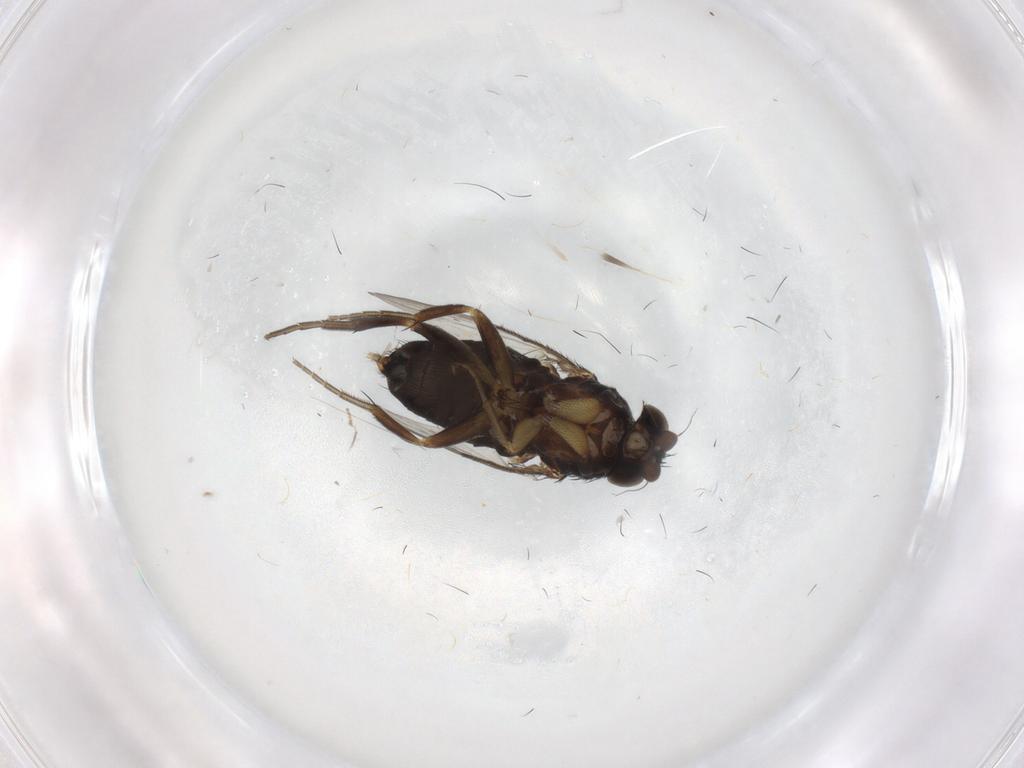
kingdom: Animalia
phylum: Arthropoda
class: Insecta
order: Diptera
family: Phoridae
